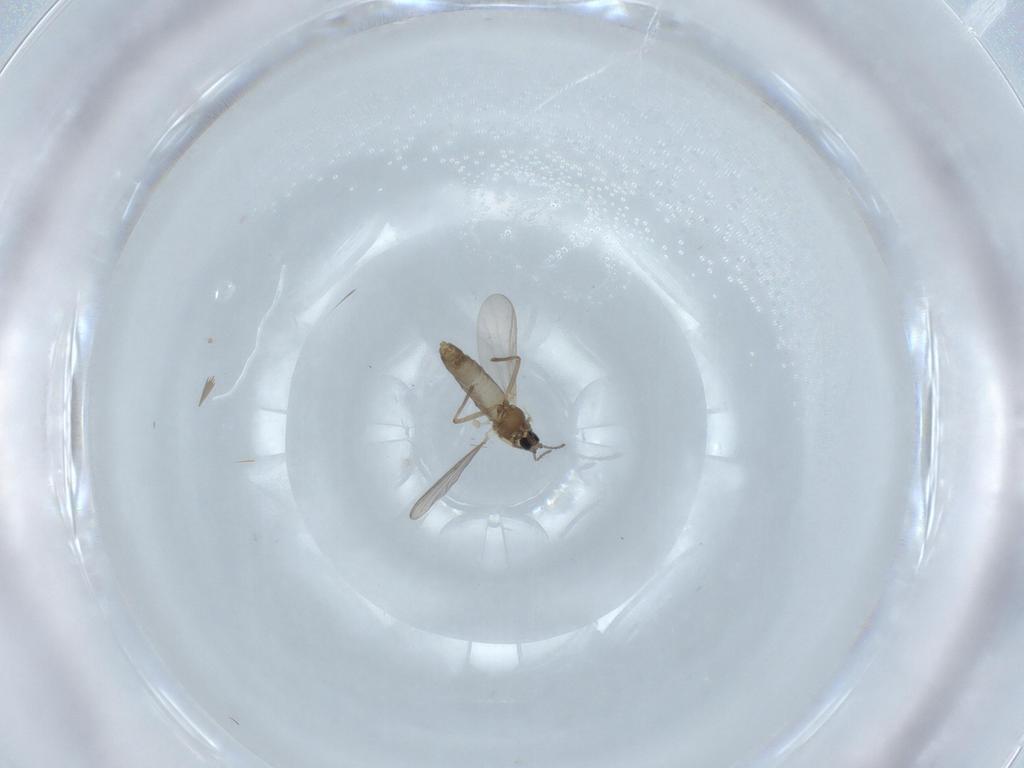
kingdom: Animalia
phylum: Arthropoda
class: Insecta
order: Diptera
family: Chironomidae
